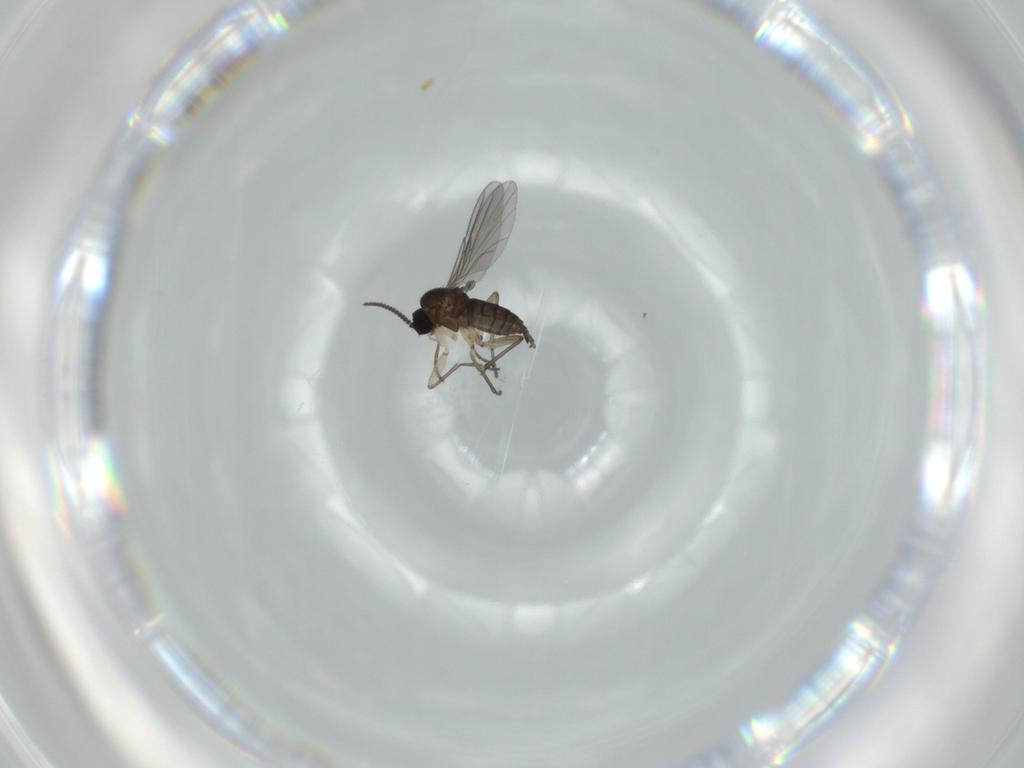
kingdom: Animalia
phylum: Arthropoda
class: Insecta
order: Diptera
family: Sciaridae
